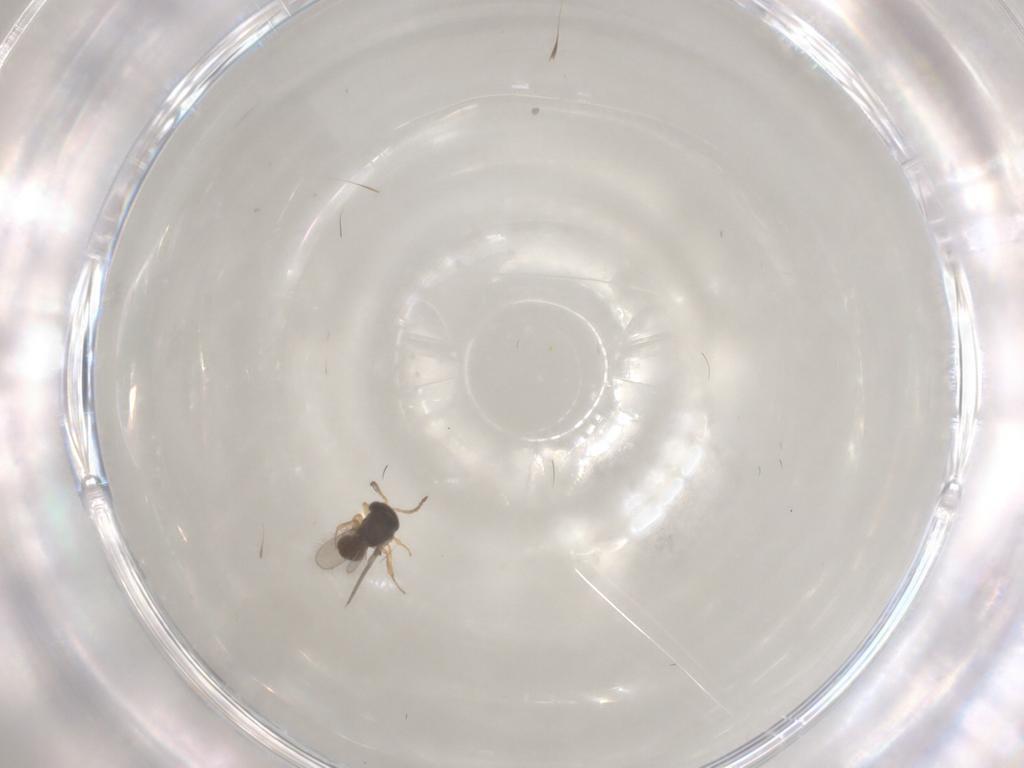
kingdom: Animalia
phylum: Arthropoda
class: Insecta
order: Hymenoptera
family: Scelionidae
